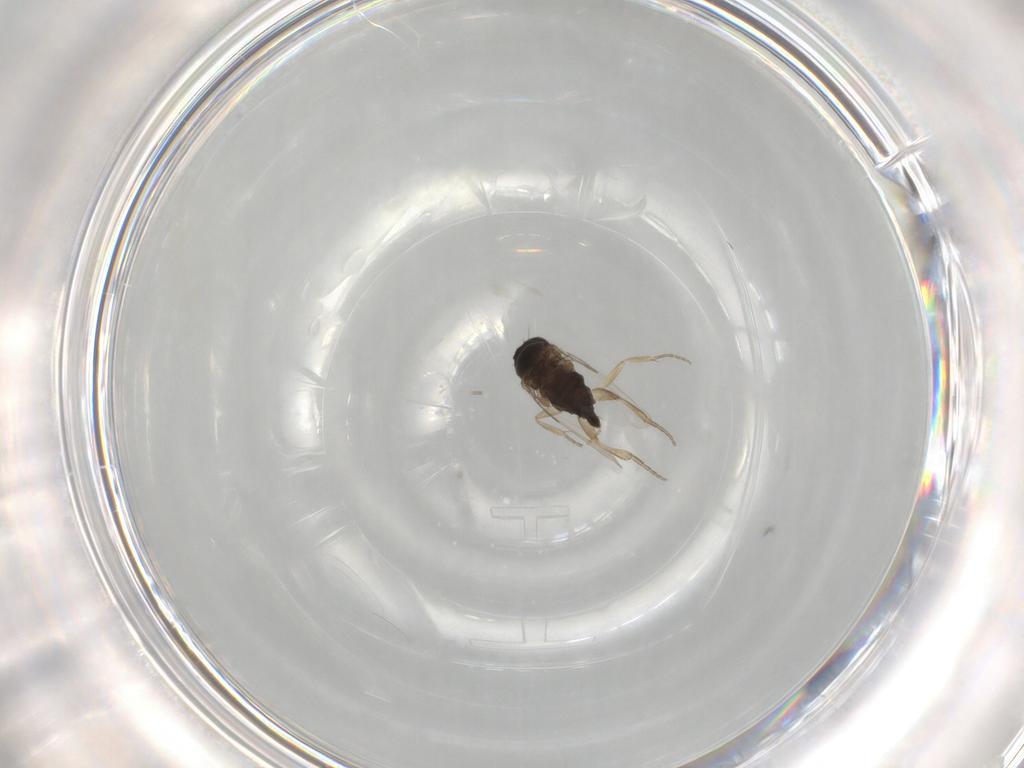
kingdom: Animalia
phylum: Arthropoda
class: Insecta
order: Diptera
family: Phoridae
